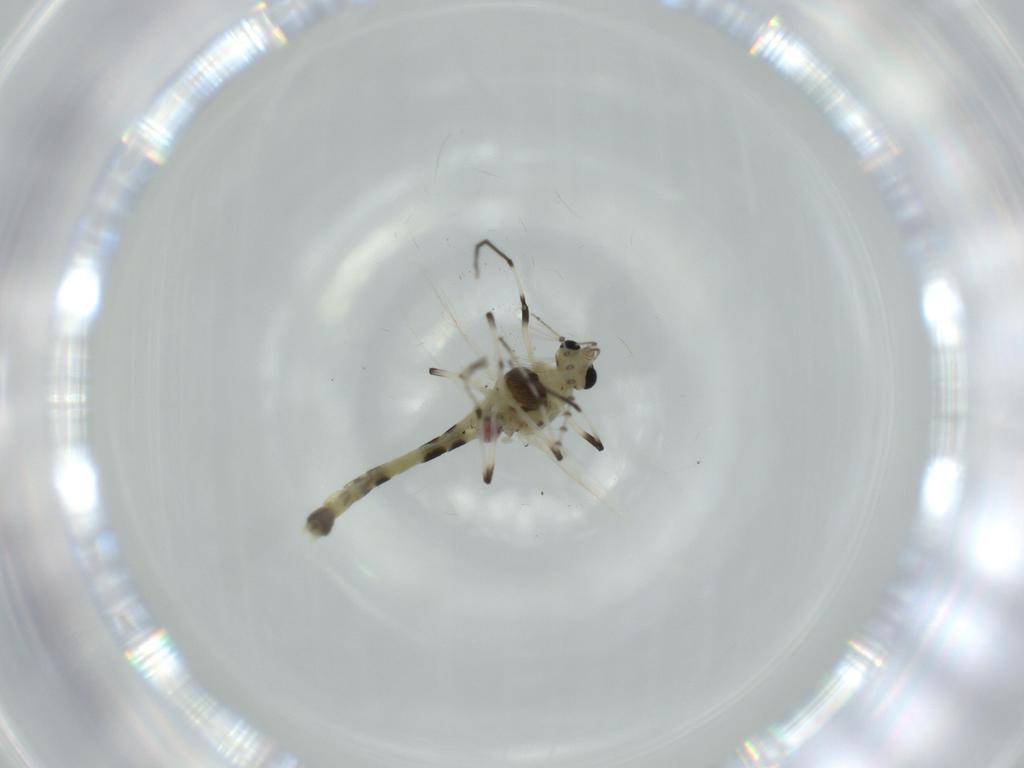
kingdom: Animalia
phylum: Arthropoda
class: Insecta
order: Diptera
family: Chironomidae
